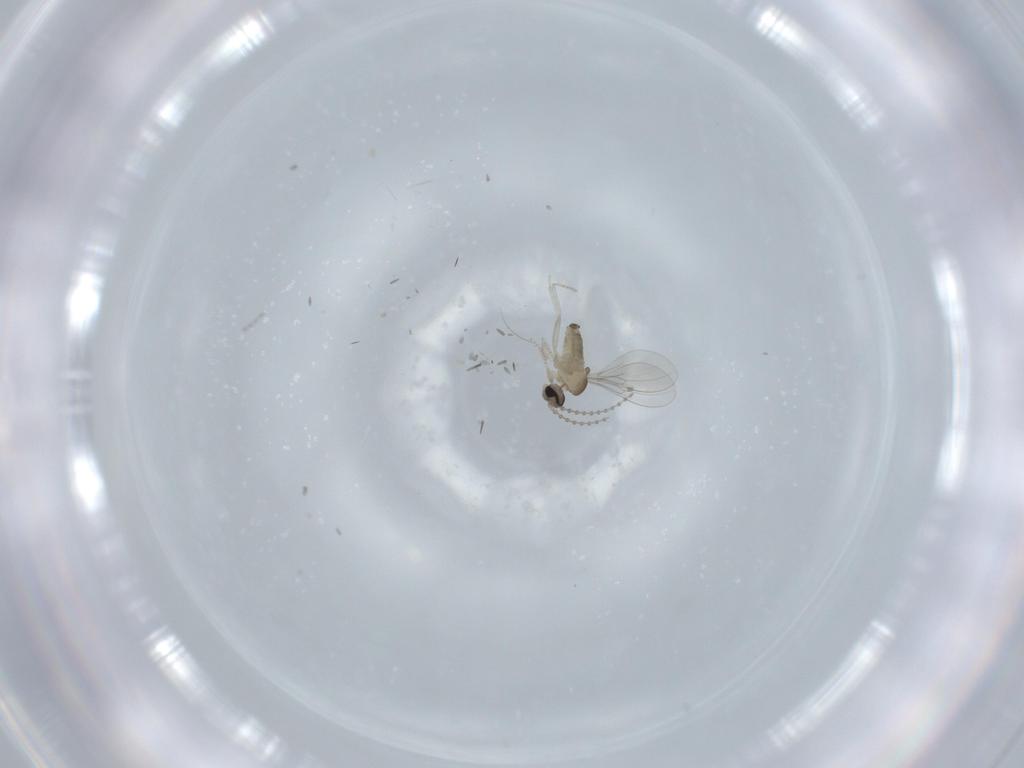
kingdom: Animalia
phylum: Arthropoda
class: Insecta
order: Diptera
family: Cecidomyiidae
